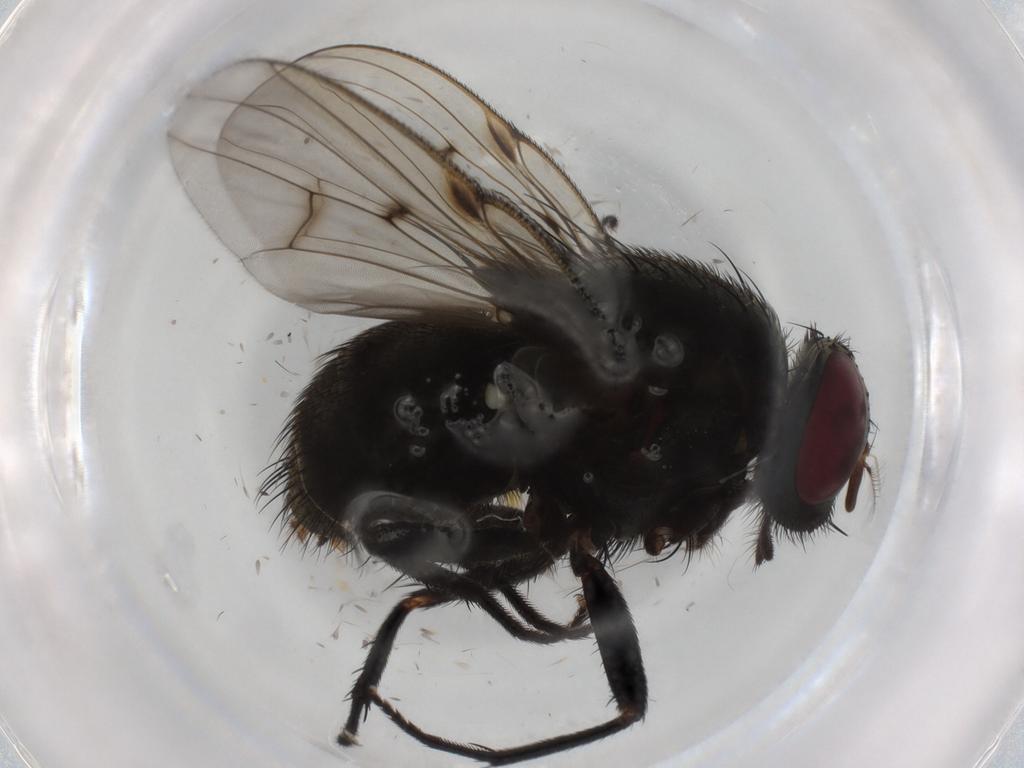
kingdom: Animalia
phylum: Arthropoda
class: Insecta
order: Diptera
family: Muscidae
